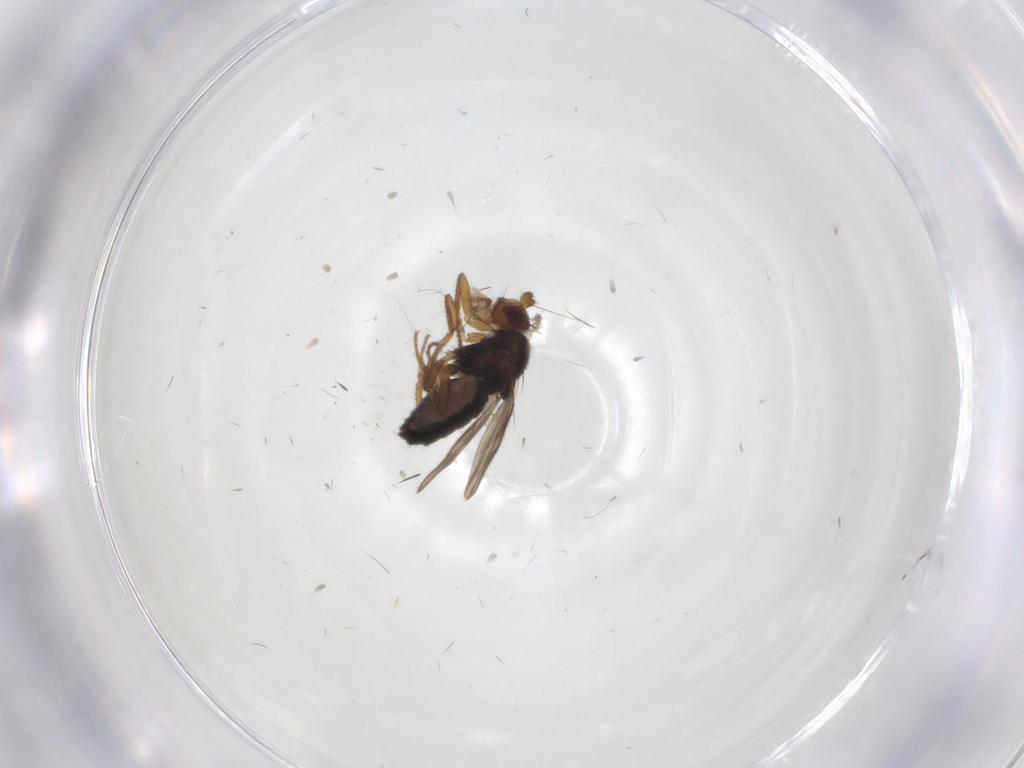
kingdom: Animalia
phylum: Arthropoda
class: Insecta
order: Diptera
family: Sphaeroceridae
